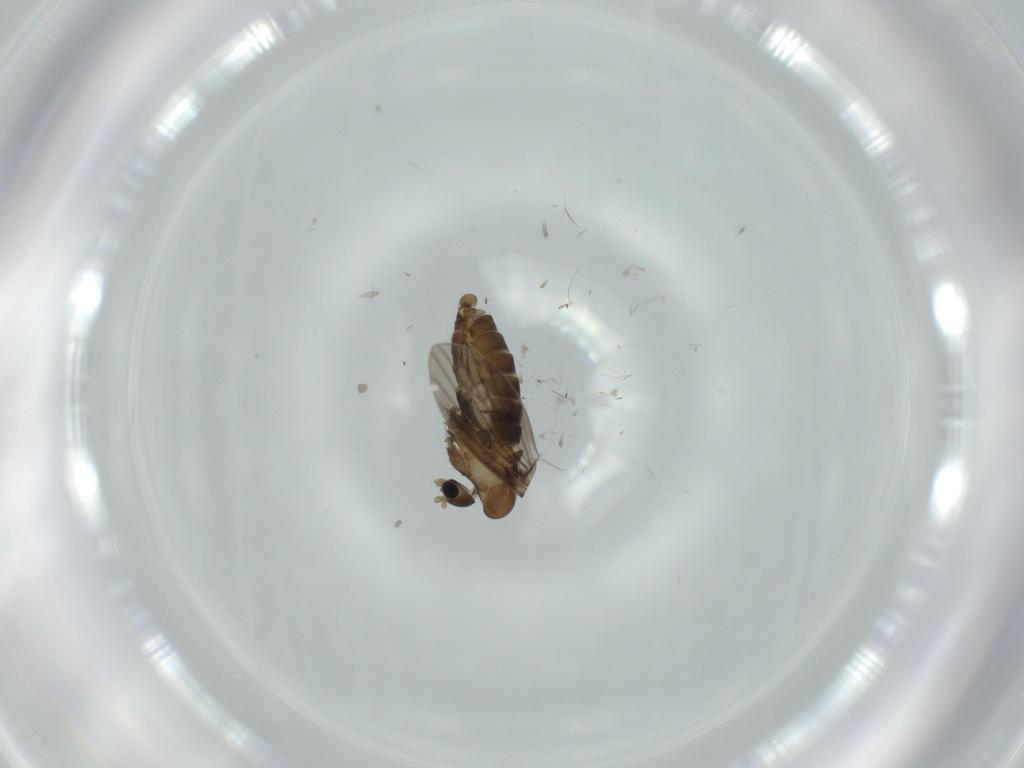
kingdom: Animalia
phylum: Arthropoda
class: Insecta
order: Diptera
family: Psychodidae
